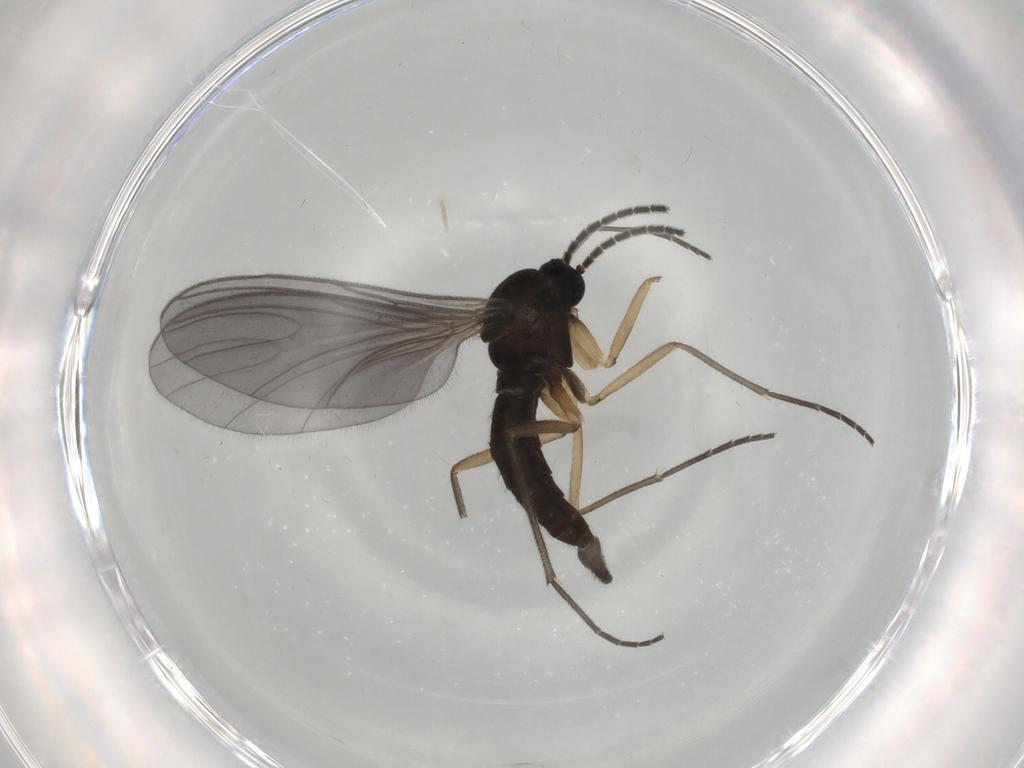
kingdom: Animalia
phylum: Arthropoda
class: Insecta
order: Diptera
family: Sciaridae
